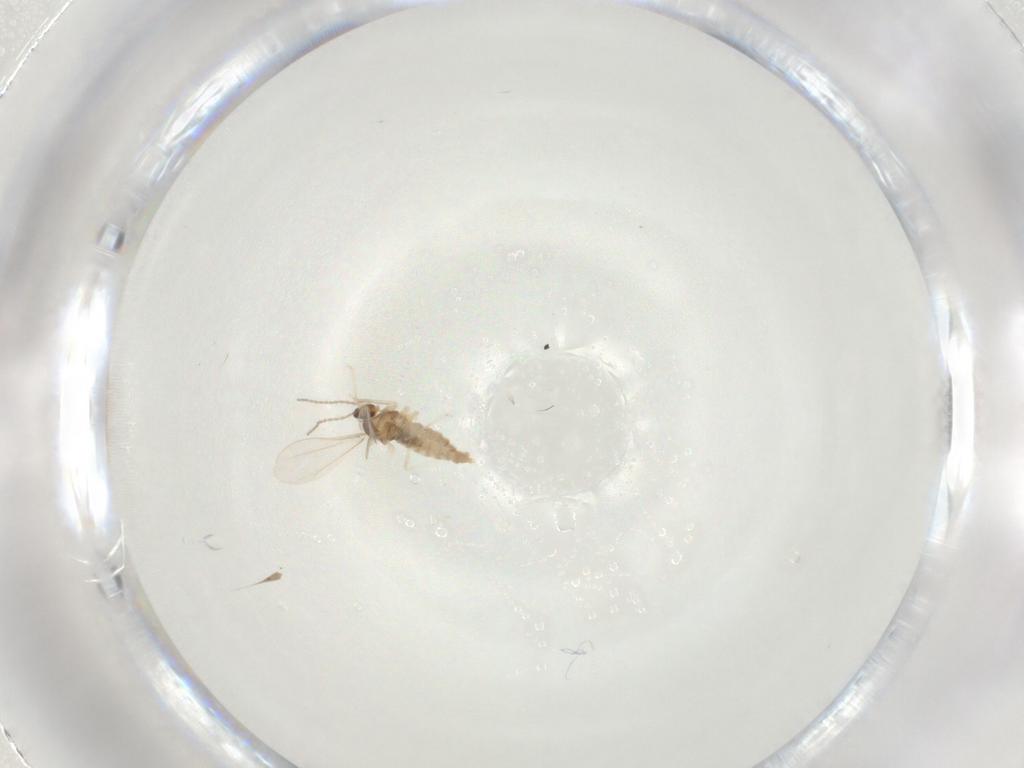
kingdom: Animalia
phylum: Arthropoda
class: Insecta
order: Diptera
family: Cecidomyiidae
